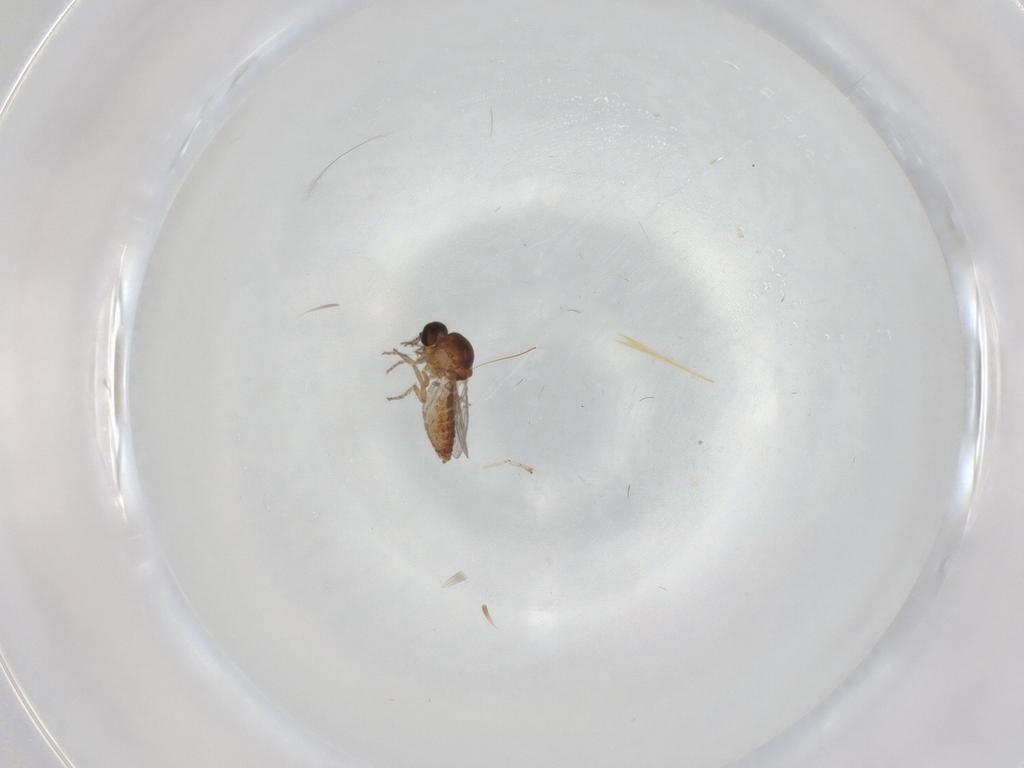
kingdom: Animalia
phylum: Arthropoda
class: Insecta
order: Diptera
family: Ceratopogonidae
